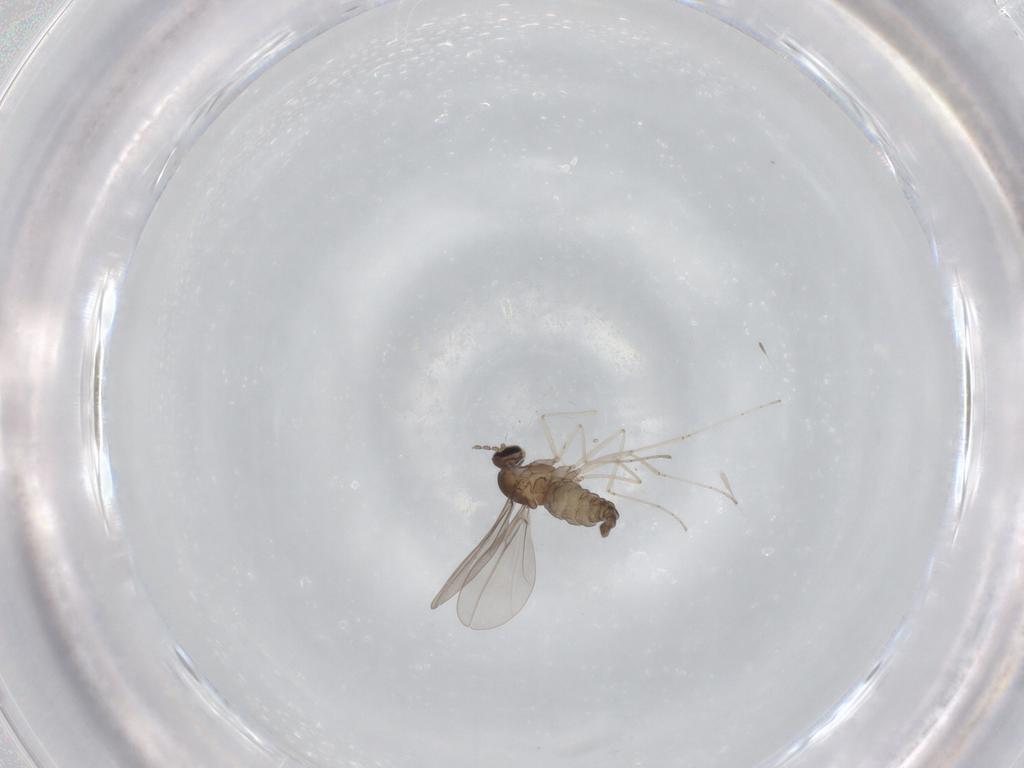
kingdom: Animalia
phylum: Arthropoda
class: Insecta
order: Diptera
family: Cecidomyiidae
